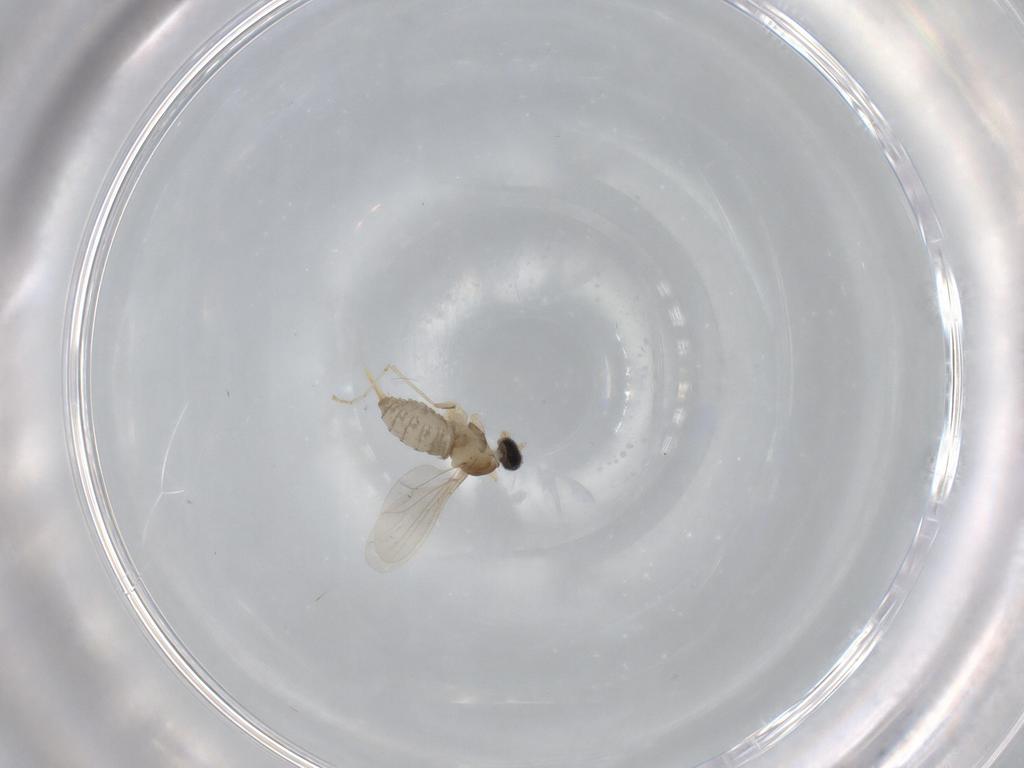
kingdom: Animalia
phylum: Arthropoda
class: Insecta
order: Diptera
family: Cecidomyiidae
